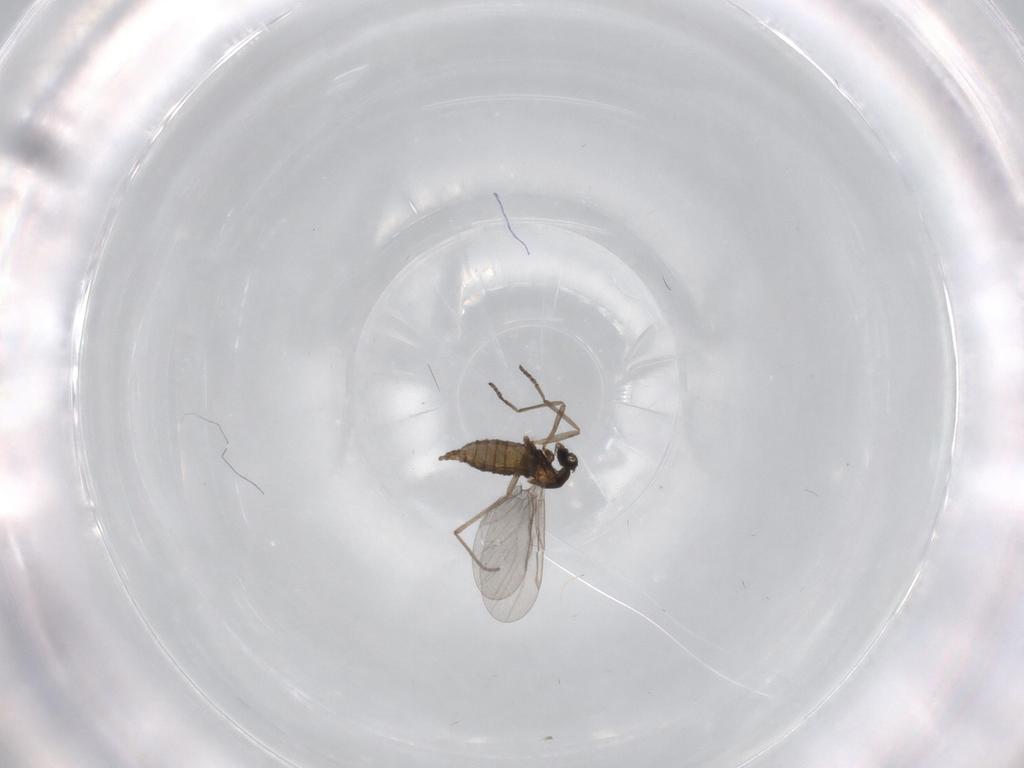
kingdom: Animalia
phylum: Arthropoda
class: Insecta
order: Diptera
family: Cecidomyiidae
